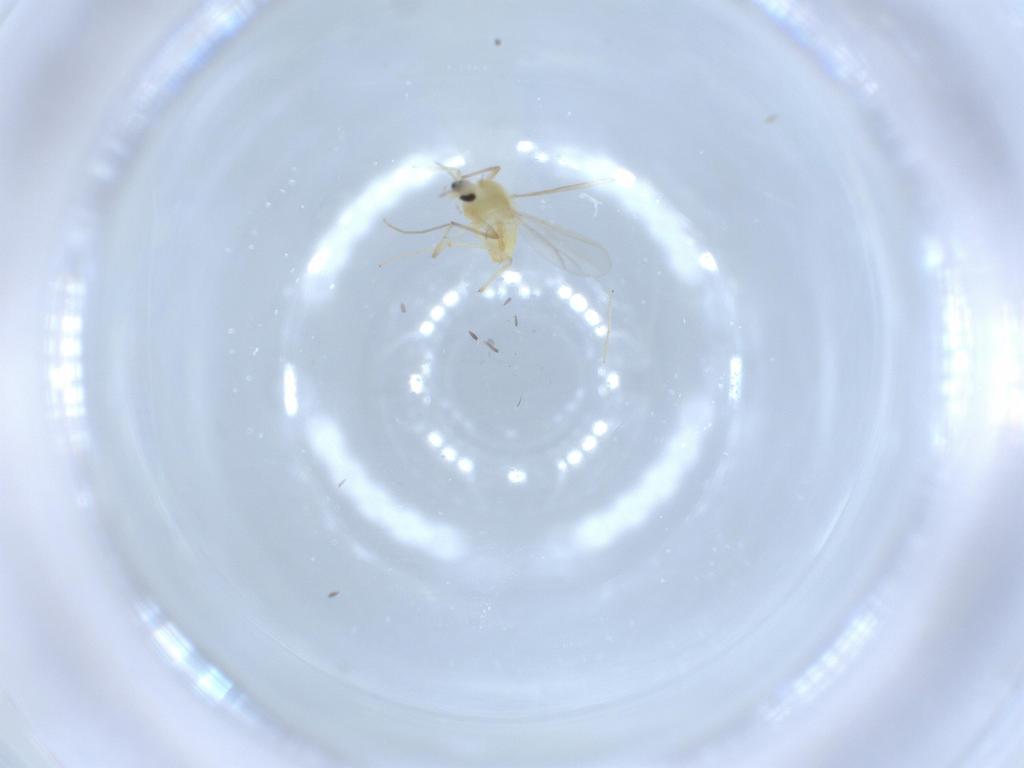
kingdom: Animalia
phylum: Arthropoda
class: Insecta
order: Diptera
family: Chironomidae
